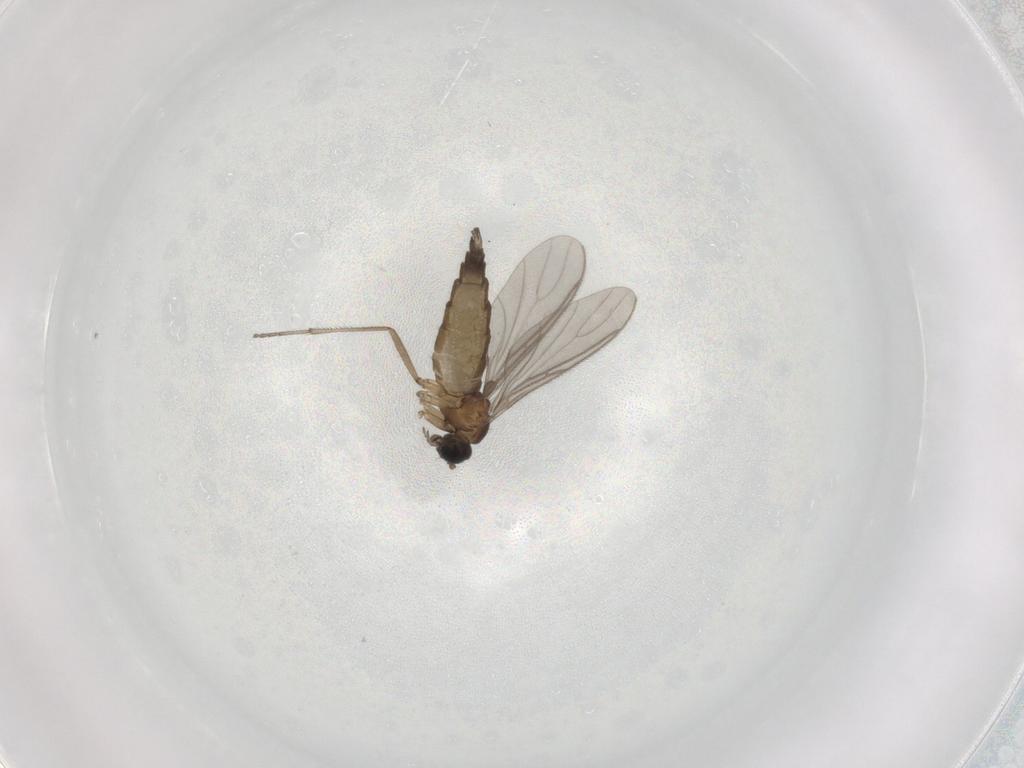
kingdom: Animalia
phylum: Arthropoda
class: Insecta
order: Diptera
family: Sciaridae
